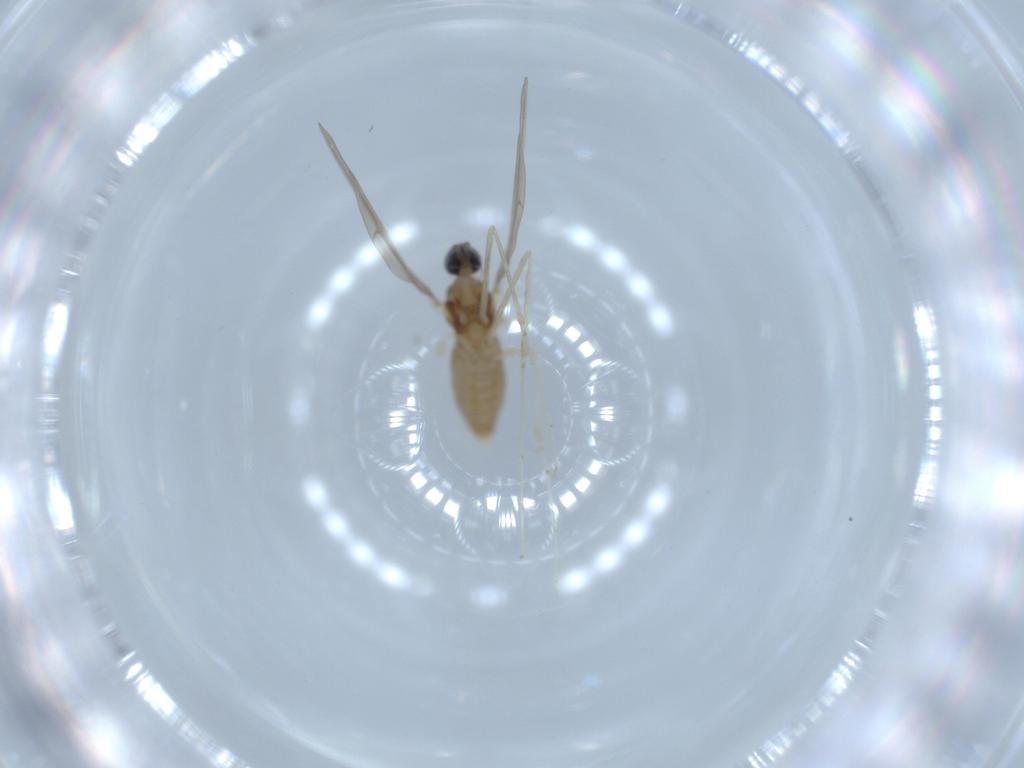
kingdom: Animalia
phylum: Arthropoda
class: Insecta
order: Diptera
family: Cecidomyiidae
